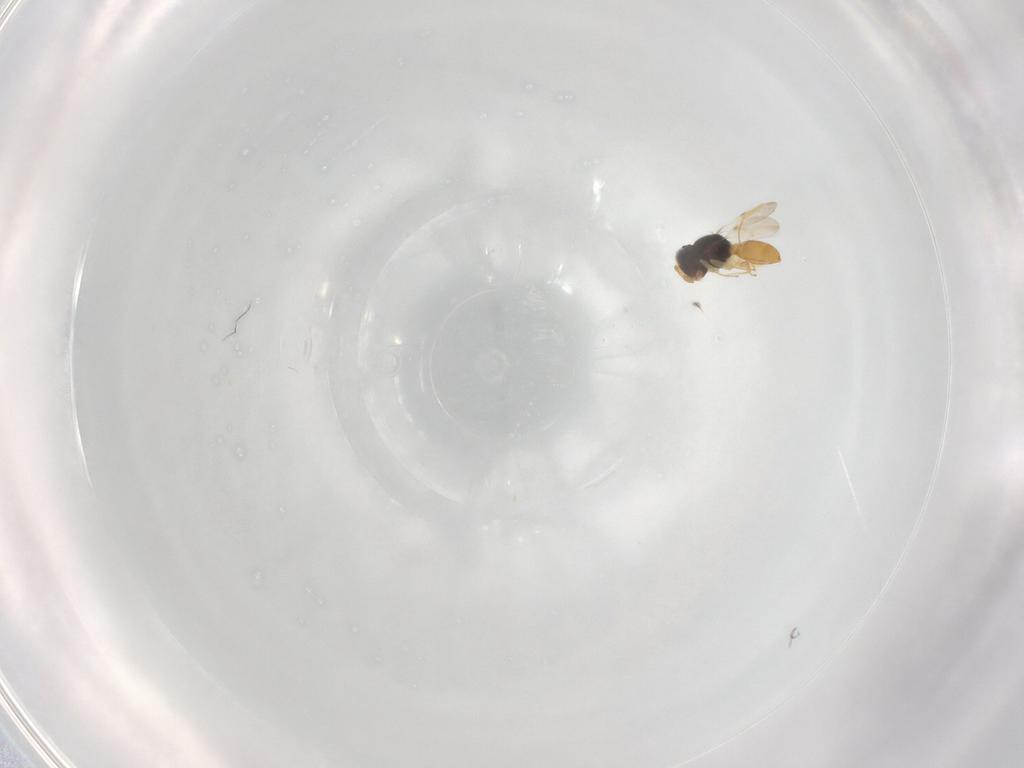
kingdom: Animalia
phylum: Arthropoda
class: Insecta
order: Hymenoptera
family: Scelionidae
